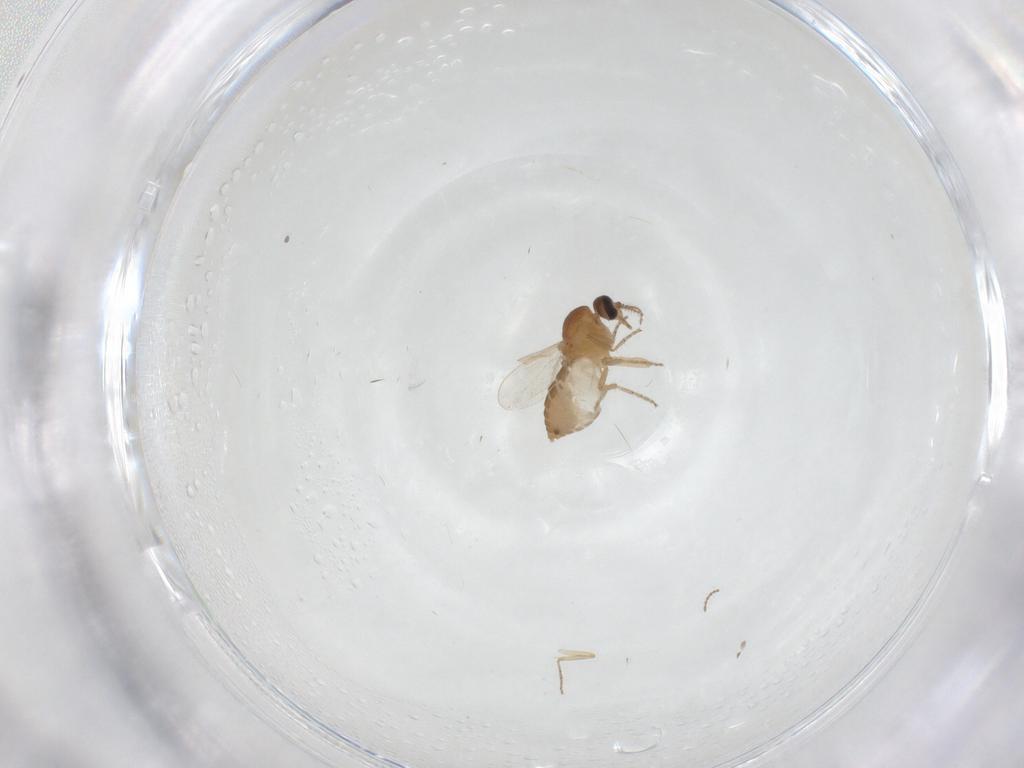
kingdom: Animalia
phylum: Arthropoda
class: Insecta
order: Diptera
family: Ceratopogonidae
